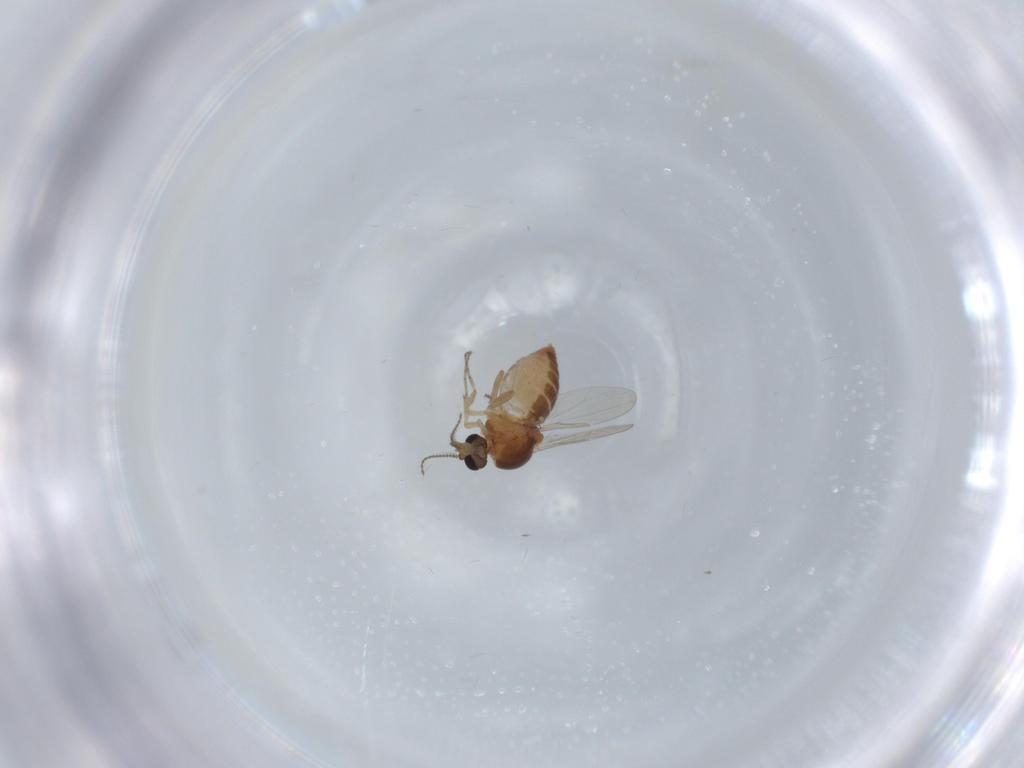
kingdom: Animalia
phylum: Arthropoda
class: Insecta
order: Diptera
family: Ceratopogonidae
